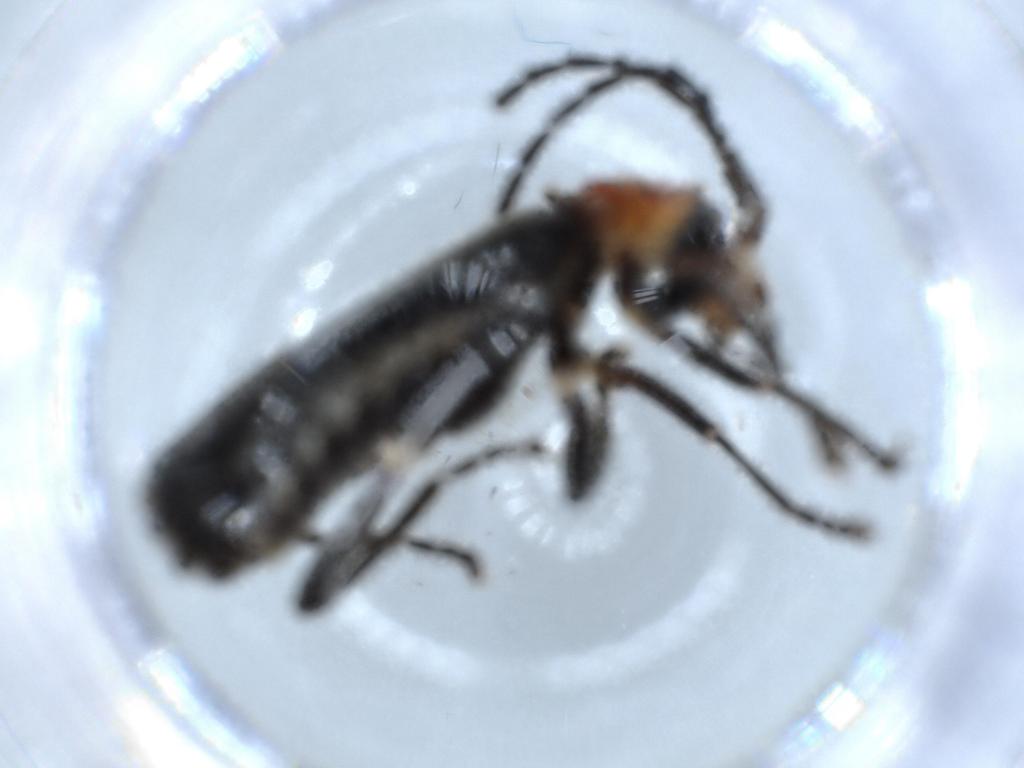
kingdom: Animalia
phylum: Arthropoda
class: Insecta
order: Coleoptera
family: Cantharidae
